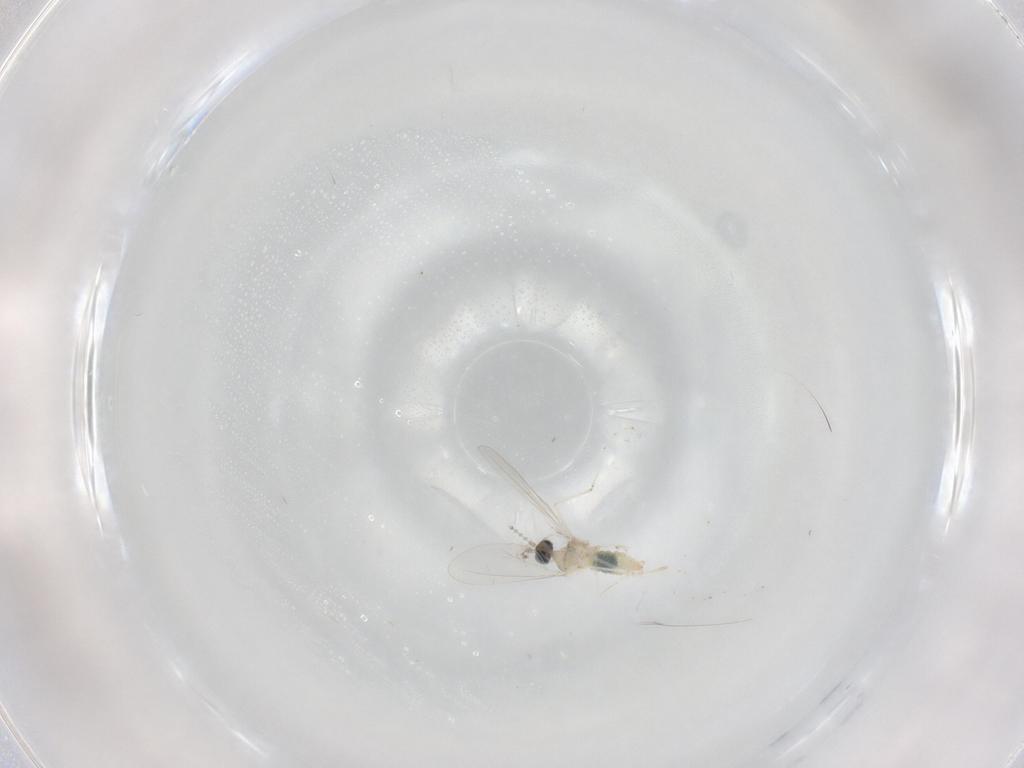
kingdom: Animalia
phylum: Arthropoda
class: Insecta
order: Diptera
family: Cecidomyiidae
